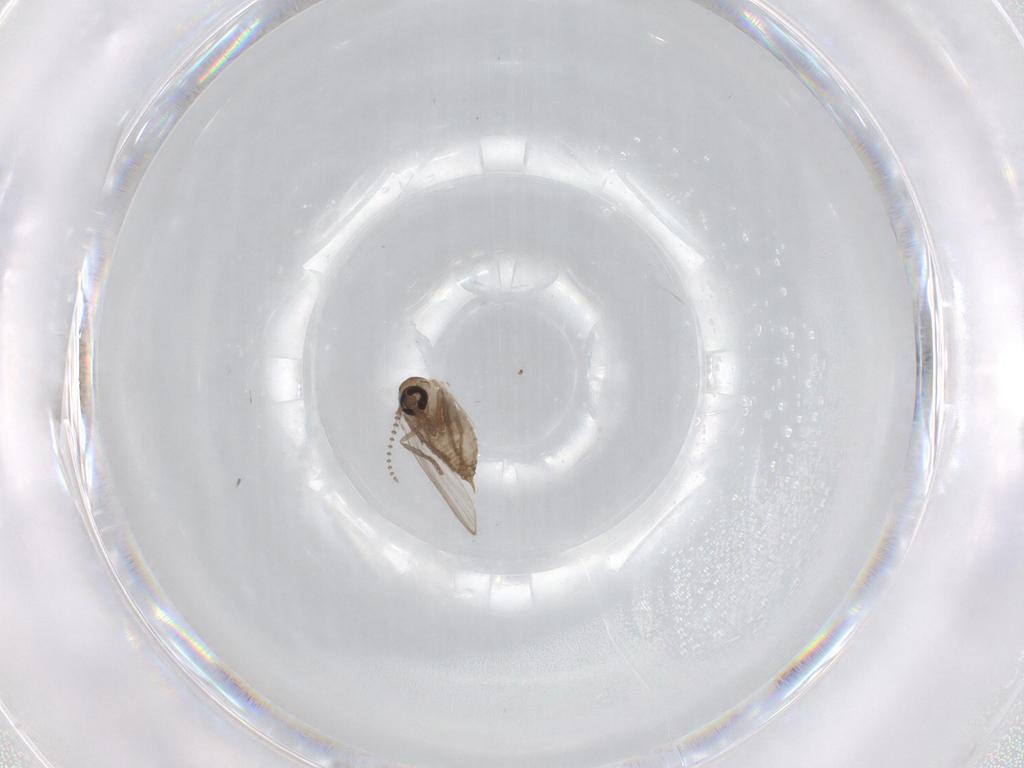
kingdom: Animalia
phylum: Arthropoda
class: Insecta
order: Diptera
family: Psychodidae
